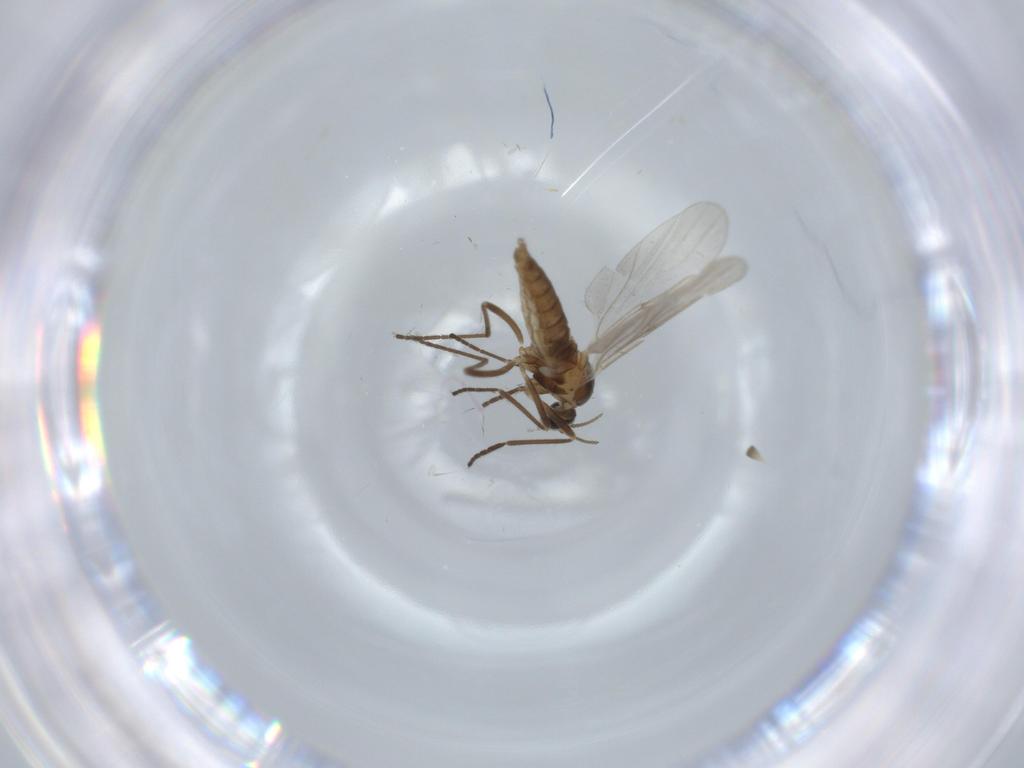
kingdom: Animalia
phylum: Arthropoda
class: Insecta
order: Diptera
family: Cecidomyiidae
